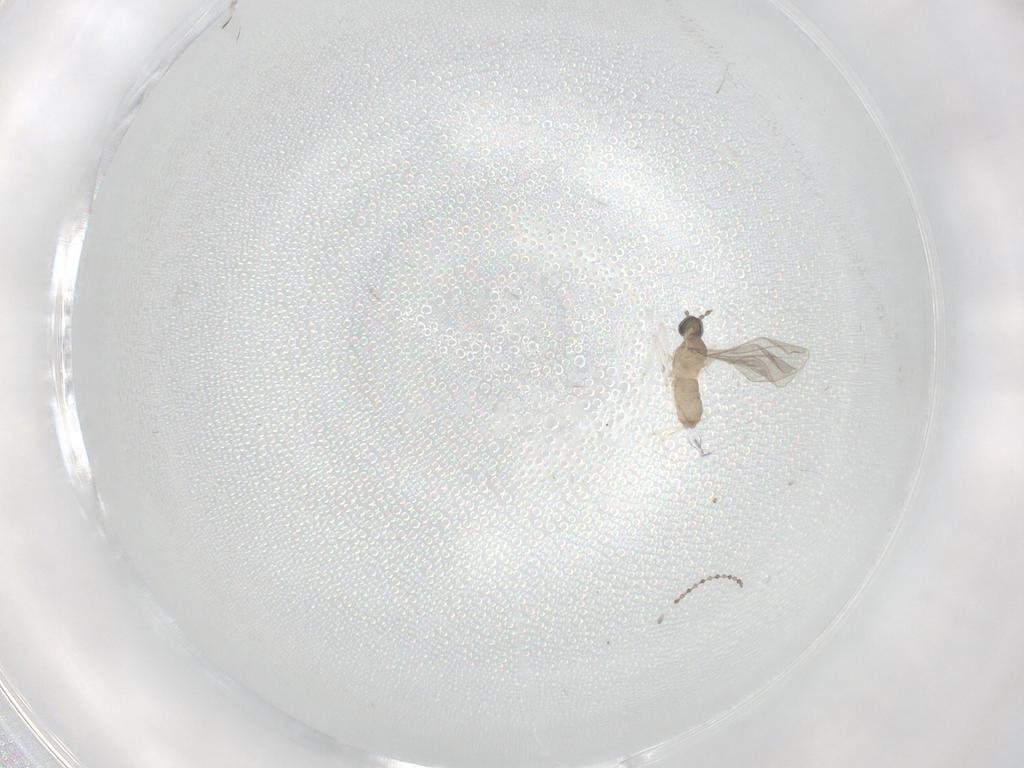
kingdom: Animalia
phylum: Arthropoda
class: Insecta
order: Diptera
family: Cecidomyiidae
